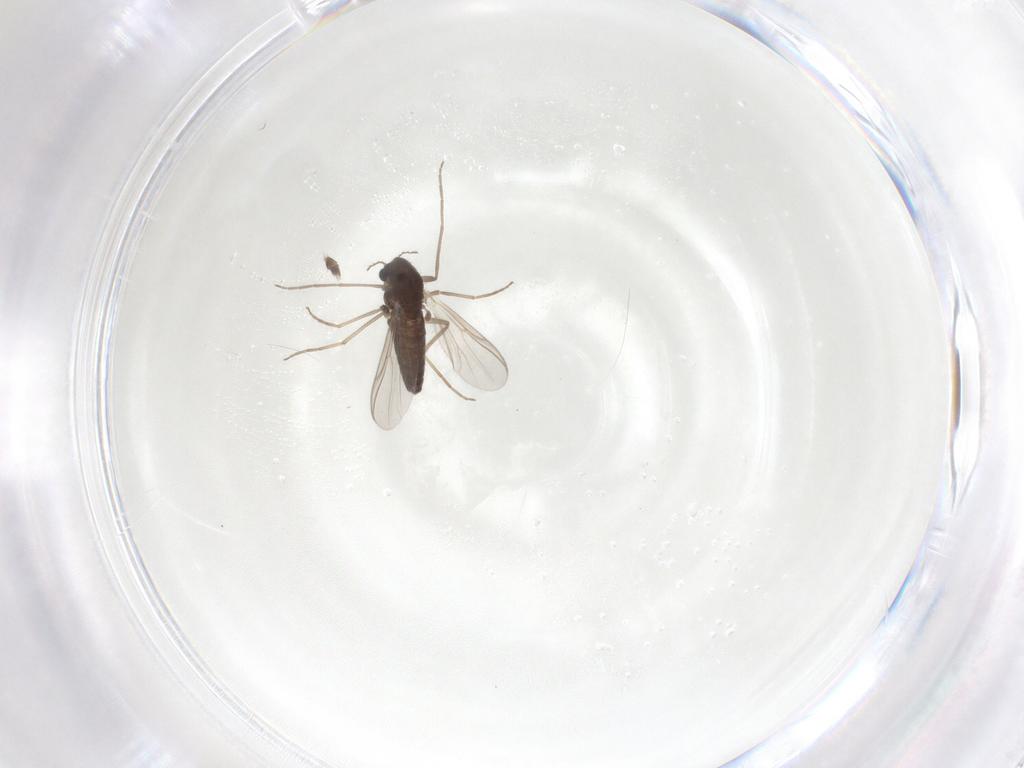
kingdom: Animalia
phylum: Arthropoda
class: Insecta
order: Diptera
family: Chironomidae
